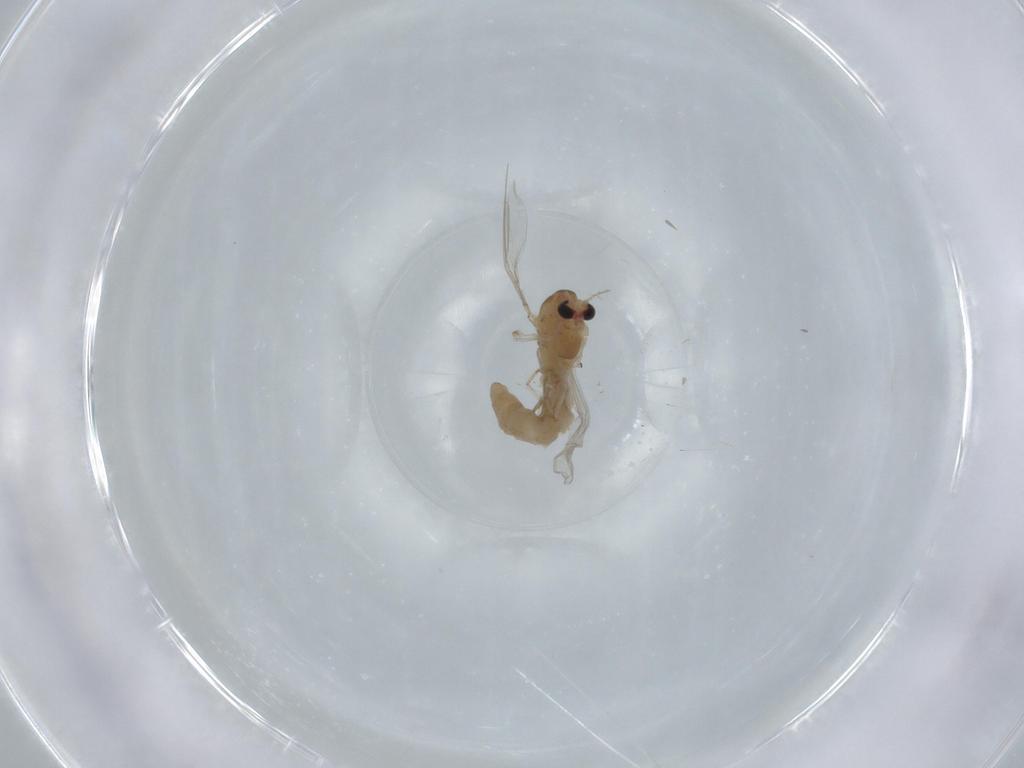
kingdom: Animalia
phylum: Arthropoda
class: Insecta
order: Diptera
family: Chironomidae
